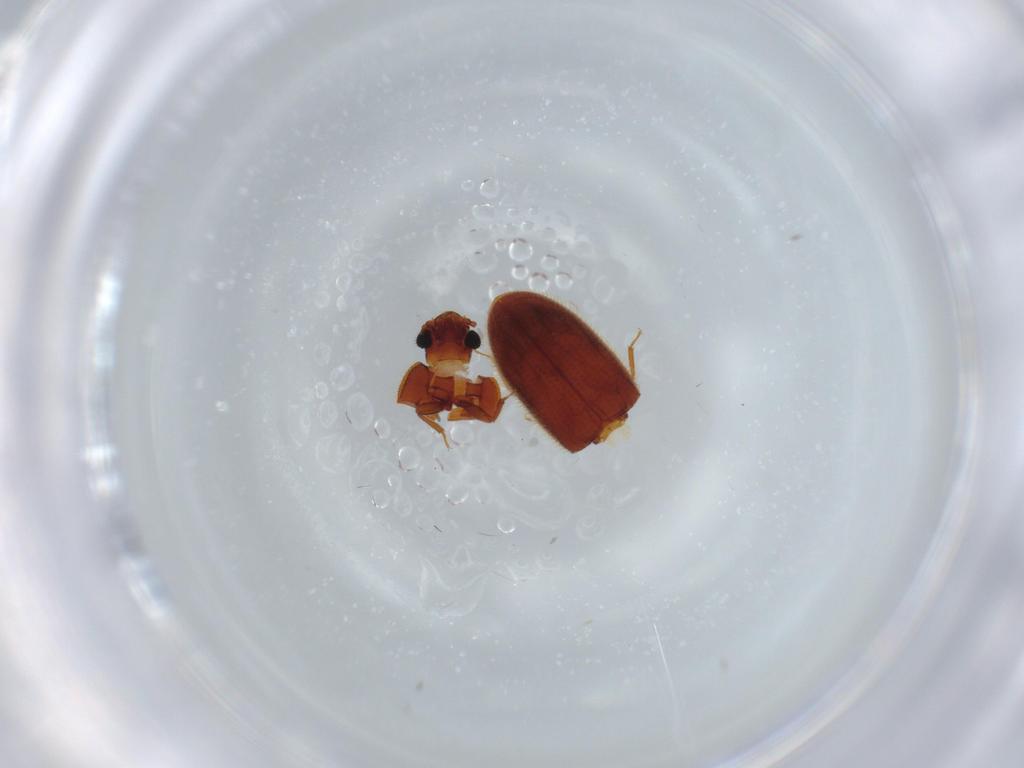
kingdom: Animalia
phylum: Arthropoda
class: Insecta
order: Coleoptera
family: Biphyllidae
